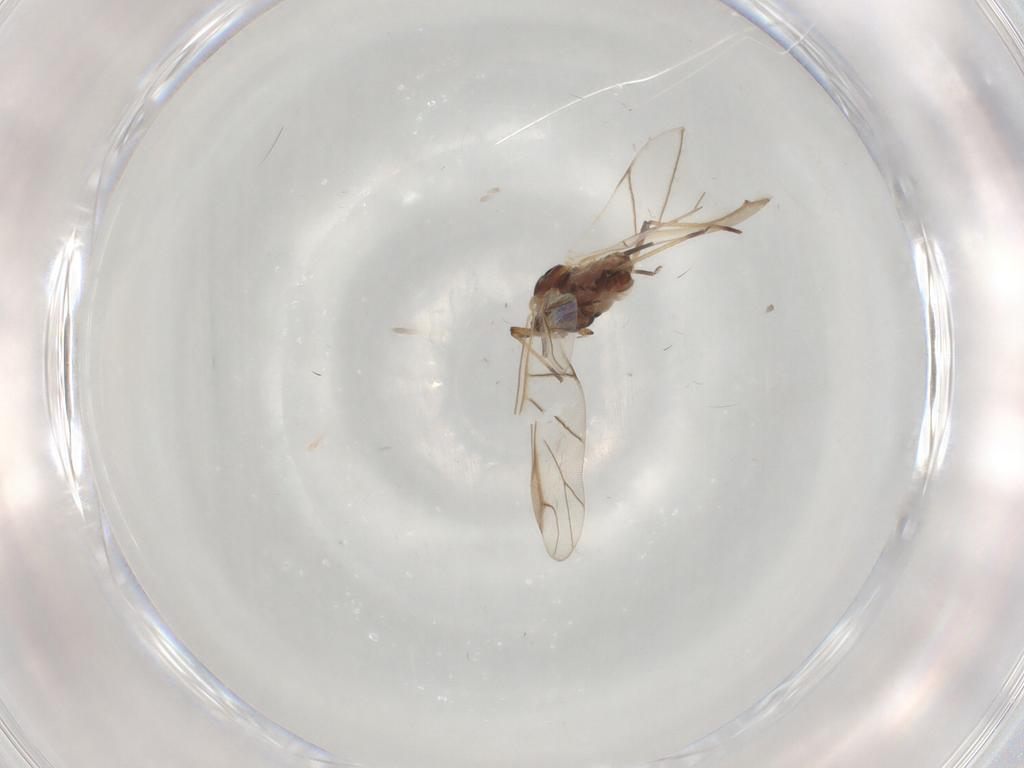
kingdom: Animalia
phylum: Arthropoda
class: Insecta
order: Hemiptera
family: Aphididae
